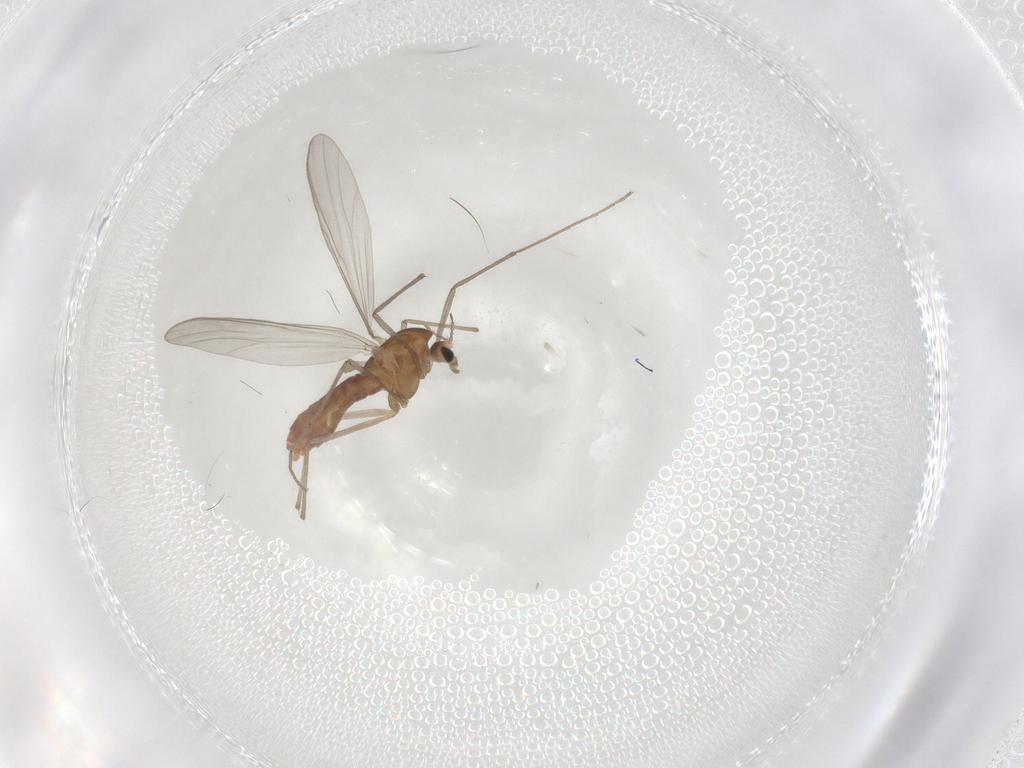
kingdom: Animalia
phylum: Arthropoda
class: Insecta
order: Diptera
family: Chironomidae
